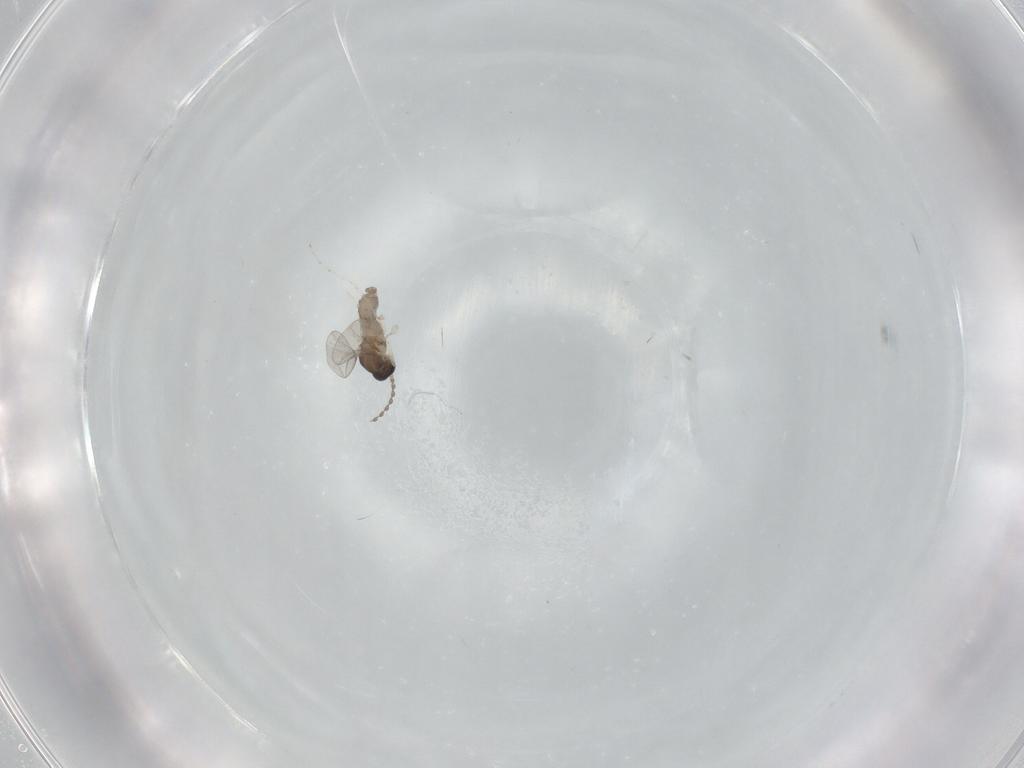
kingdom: Animalia
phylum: Arthropoda
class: Insecta
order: Diptera
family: Cecidomyiidae
